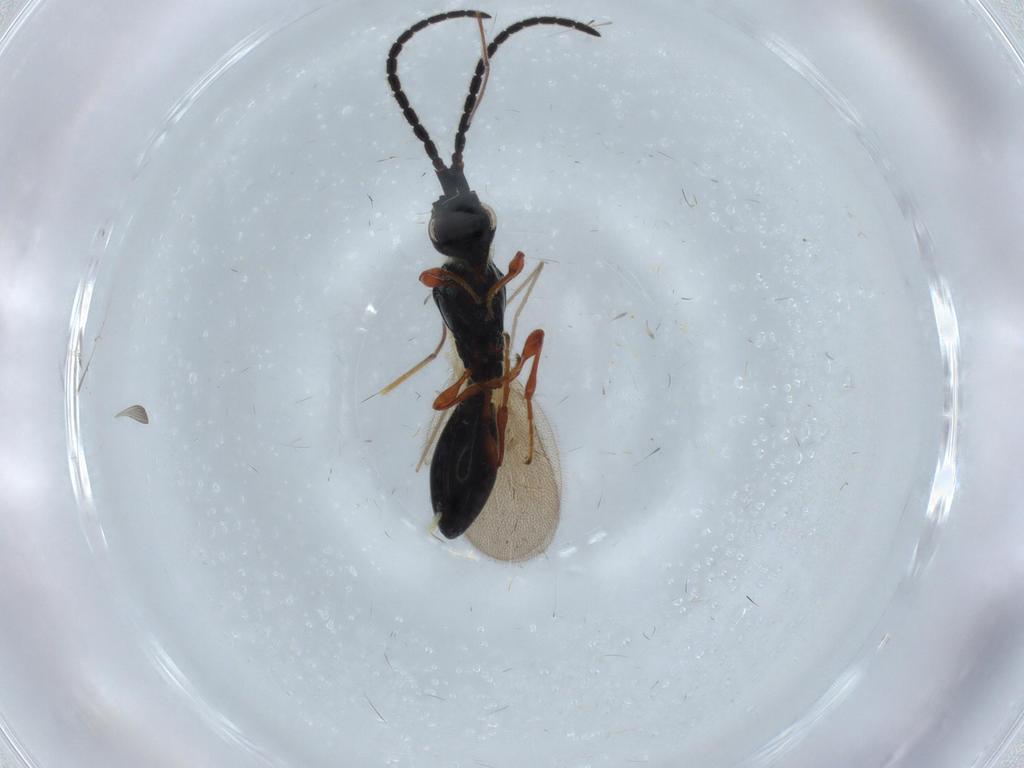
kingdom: Animalia
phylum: Arthropoda
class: Insecta
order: Hymenoptera
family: Diapriidae
